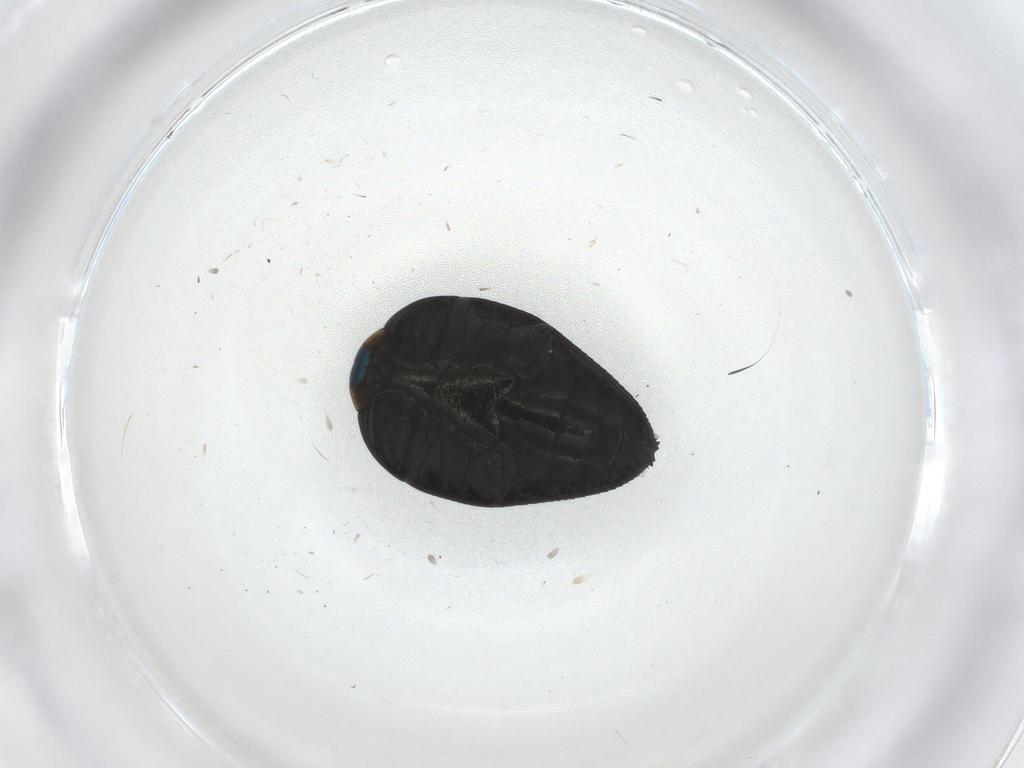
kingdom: Animalia
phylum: Arthropoda
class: Insecta
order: Coleoptera
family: Buprestidae
